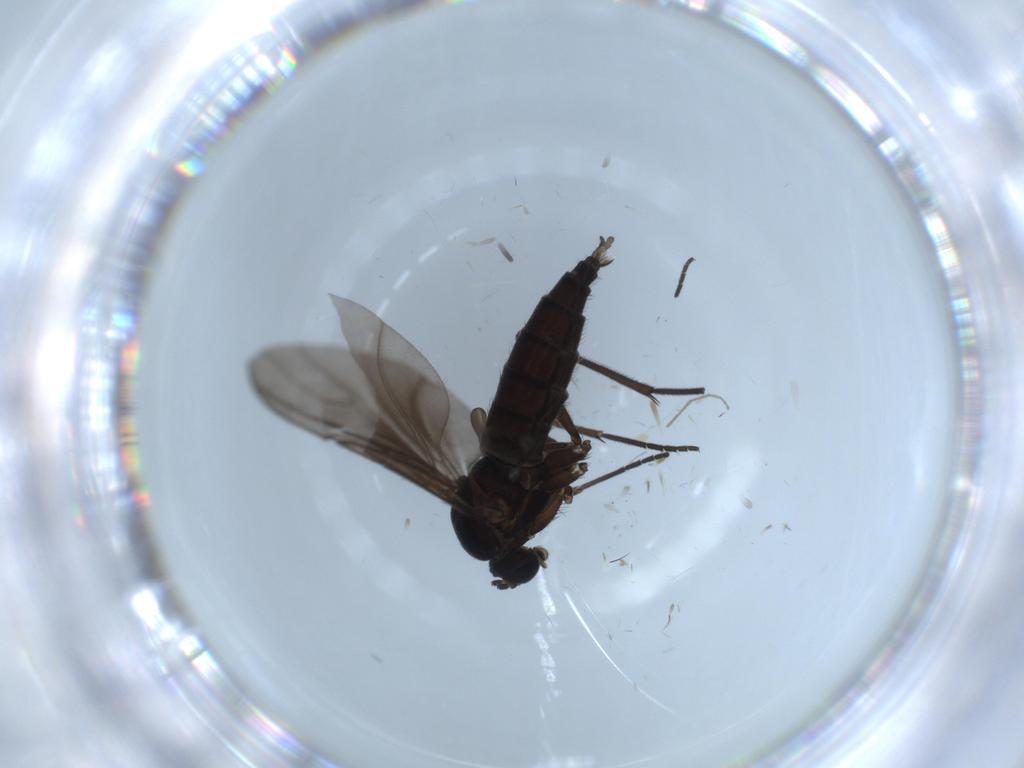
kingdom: Animalia
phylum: Arthropoda
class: Insecta
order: Diptera
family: Sciaridae
